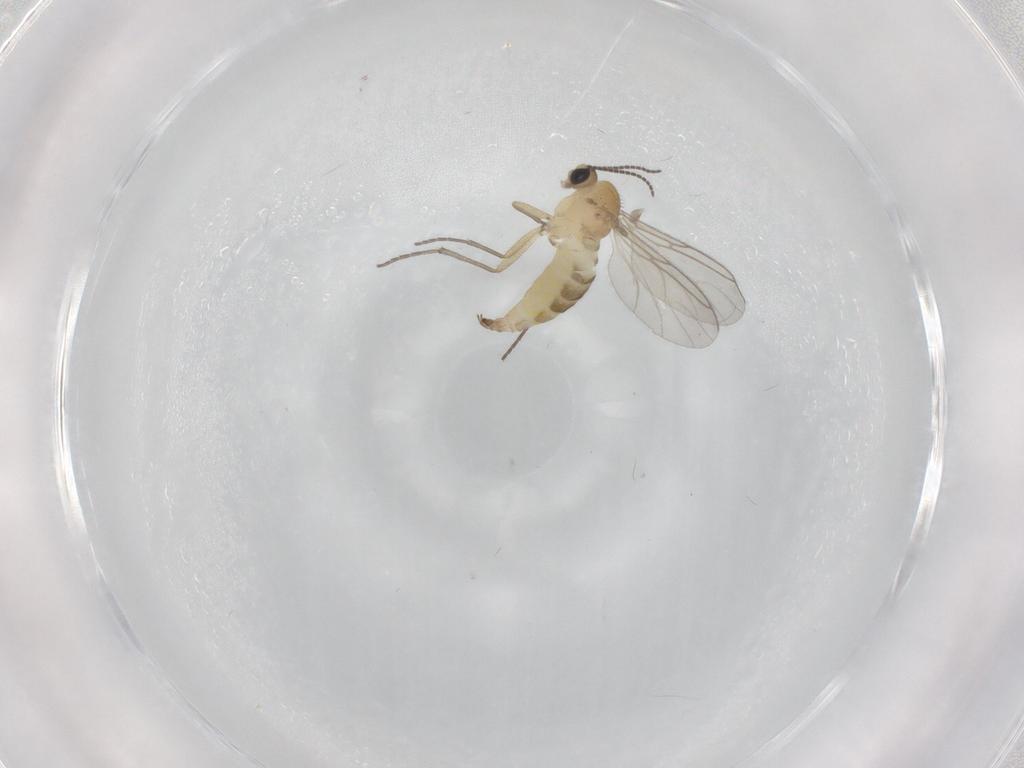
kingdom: Animalia
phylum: Arthropoda
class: Insecta
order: Diptera
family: Sciaridae
